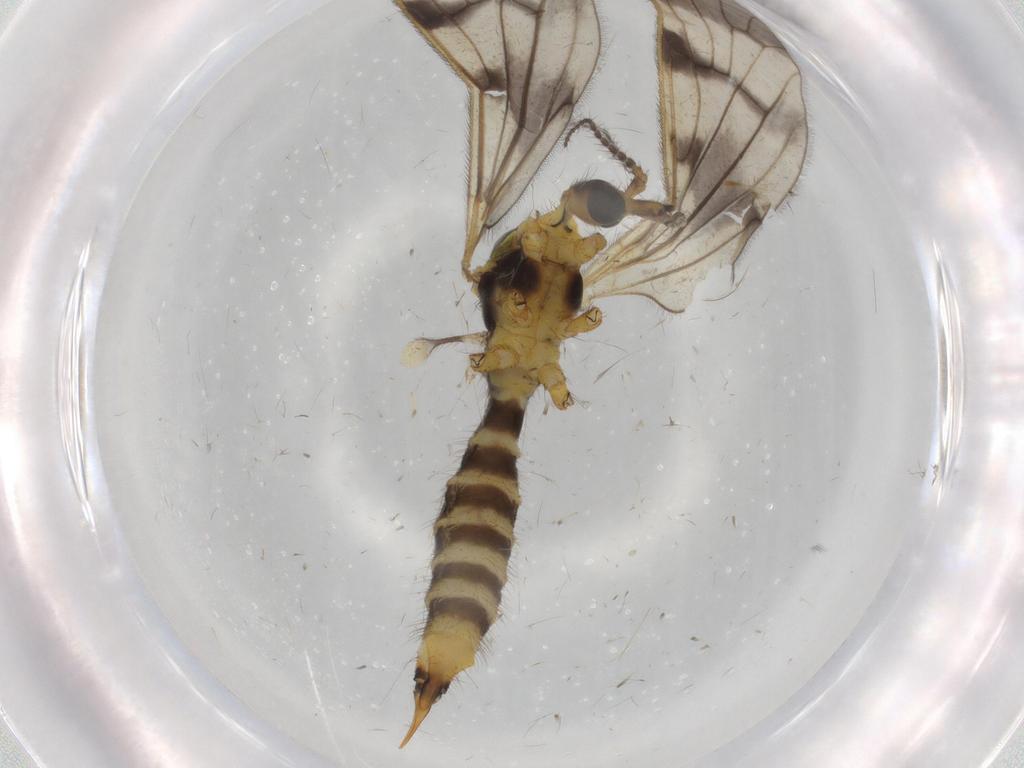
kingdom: Animalia
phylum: Arthropoda
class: Insecta
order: Diptera
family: Limoniidae
